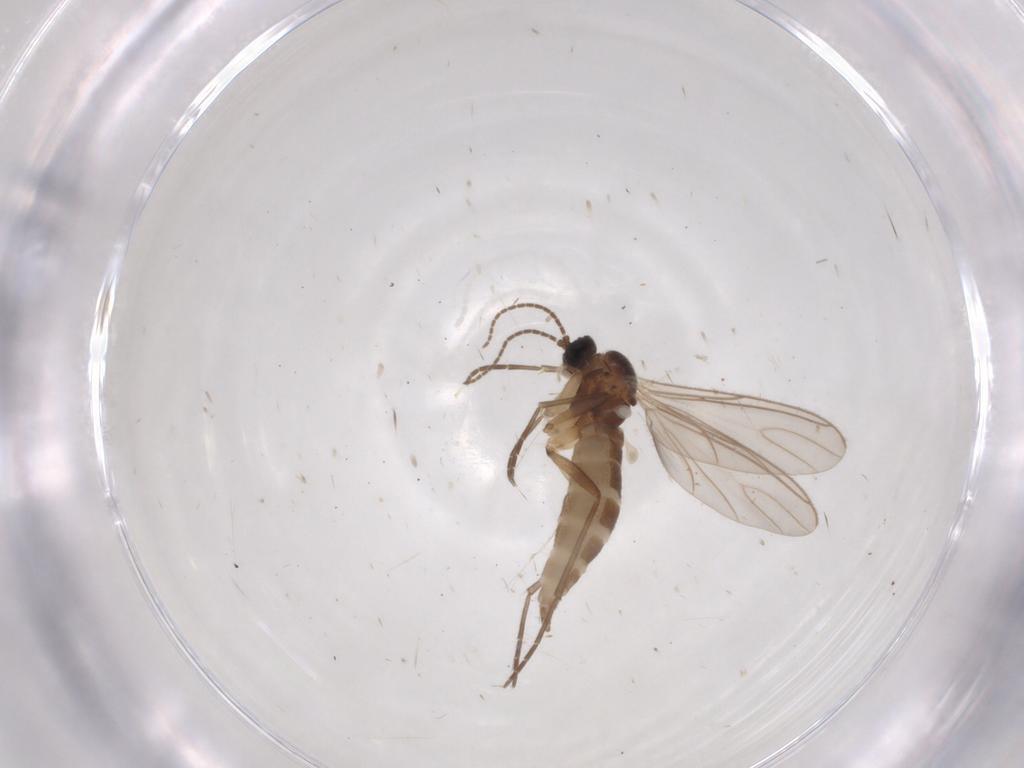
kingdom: Animalia
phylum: Arthropoda
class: Insecta
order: Diptera
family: Sciaridae
